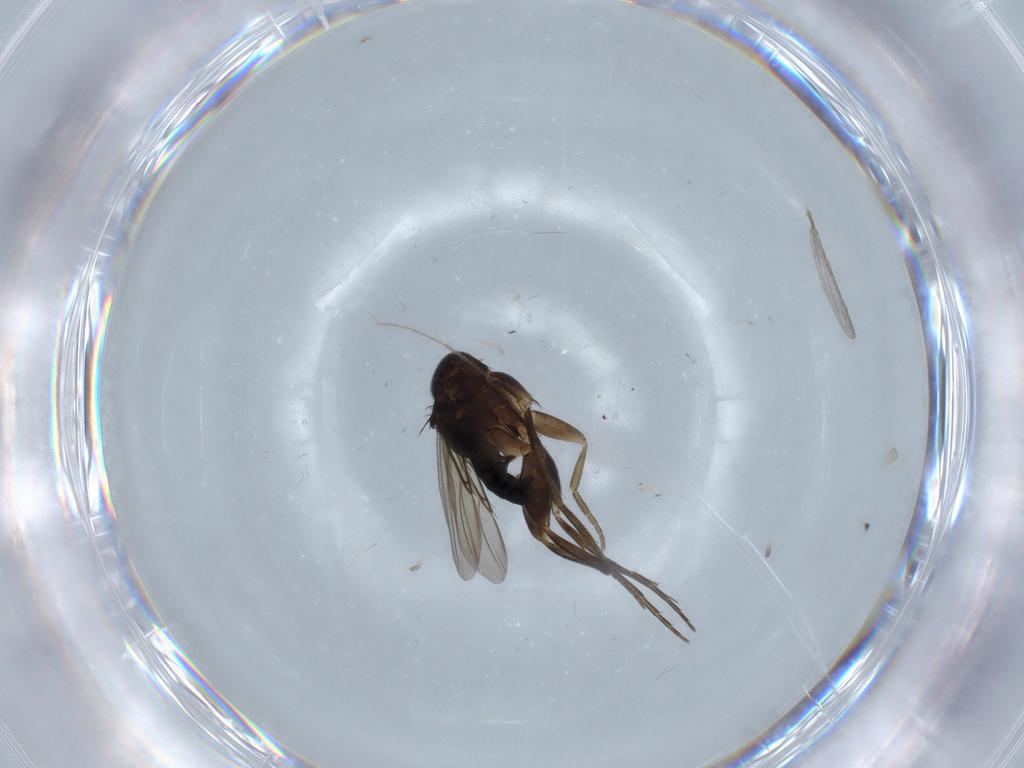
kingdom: Animalia
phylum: Arthropoda
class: Insecta
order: Diptera
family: Phoridae
